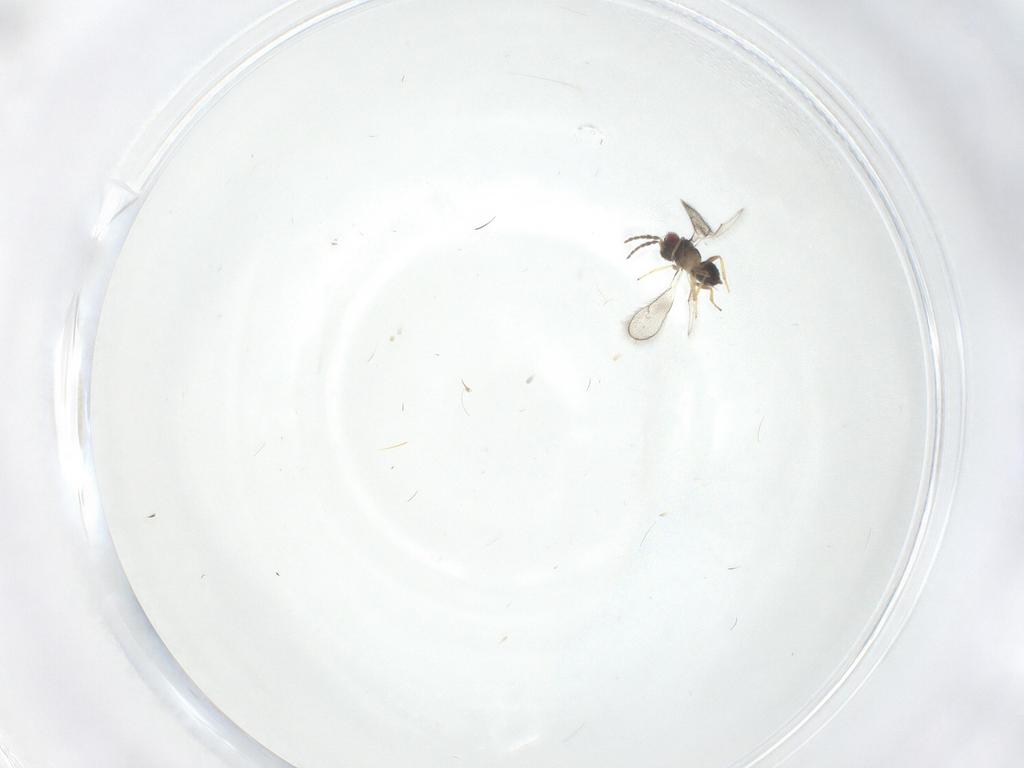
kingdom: Animalia
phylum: Arthropoda
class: Insecta
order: Hymenoptera
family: Eulophidae
